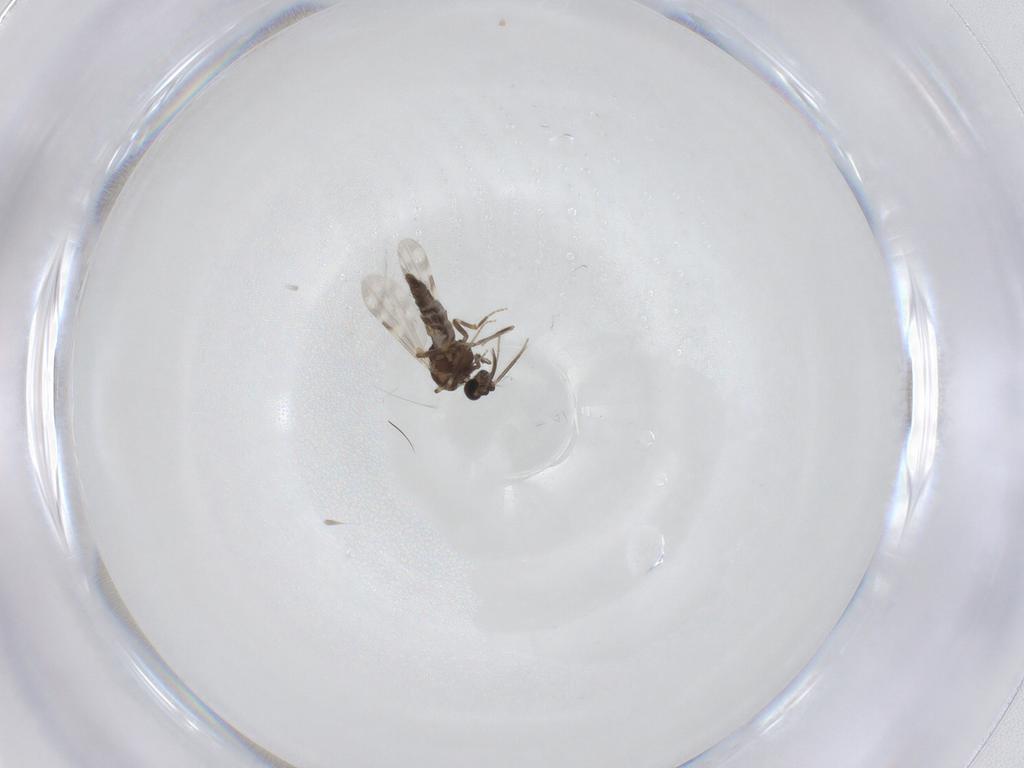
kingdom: Animalia
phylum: Arthropoda
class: Insecta
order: Diptera
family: Cecidomyiidae
